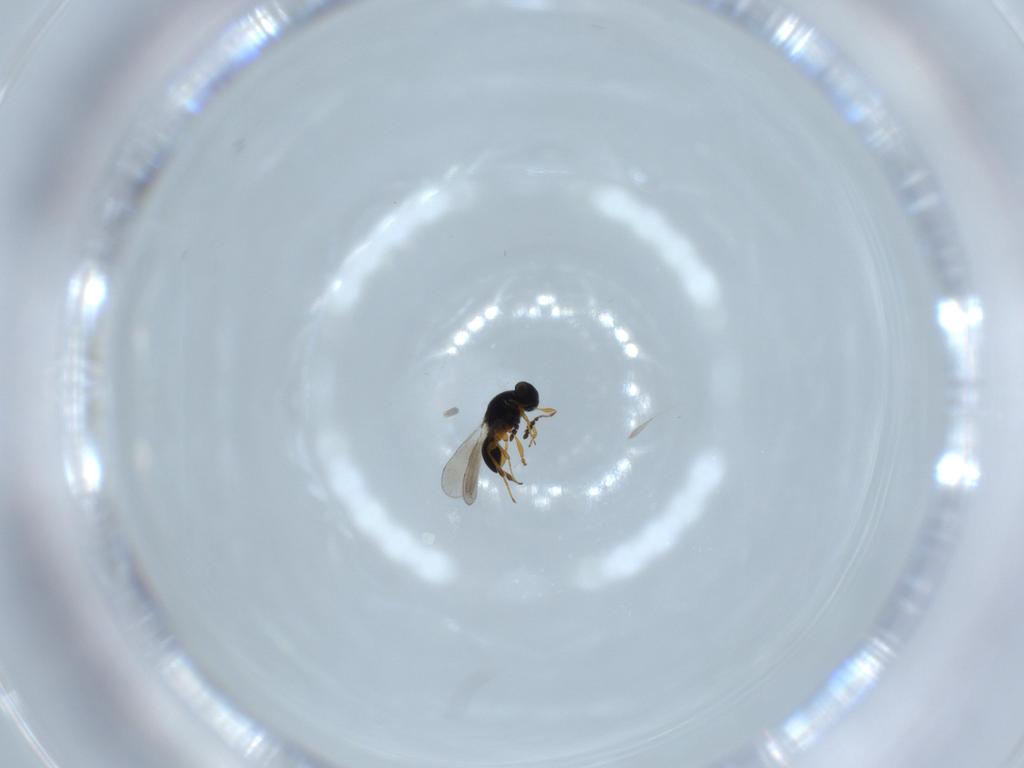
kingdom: Animalia
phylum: Arthropoda
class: Insecta
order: Hymenoptera
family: Platygastridae
